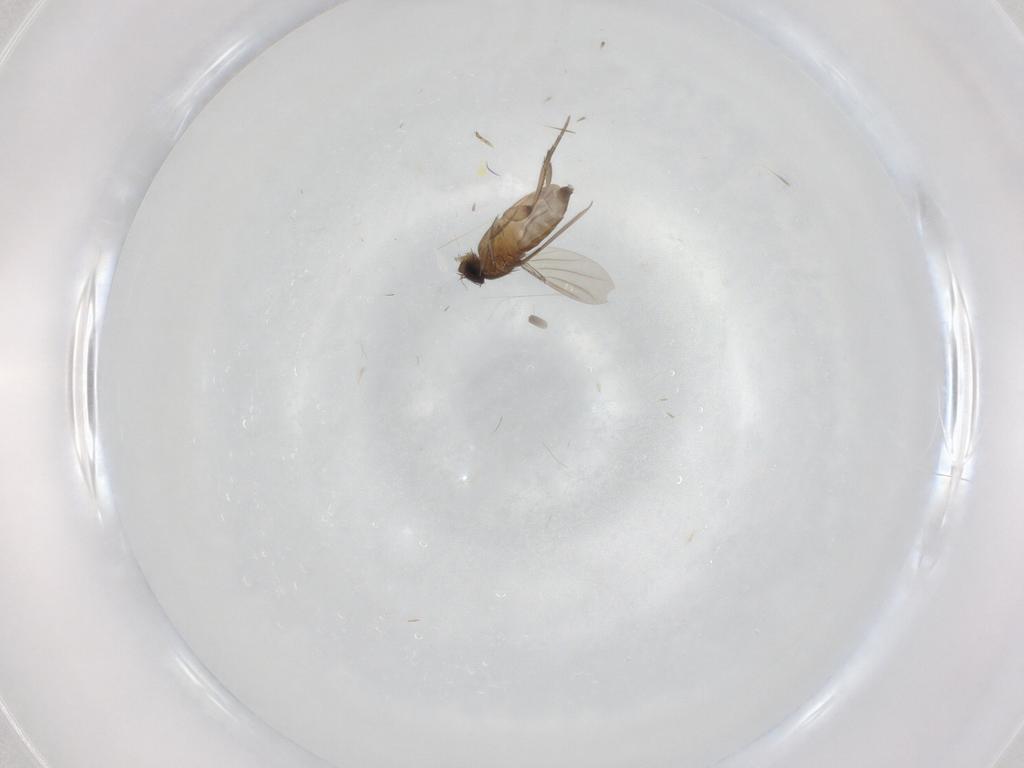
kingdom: Animalia
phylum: Arthropoda
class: Insecta
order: Diptera
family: Phoridae
